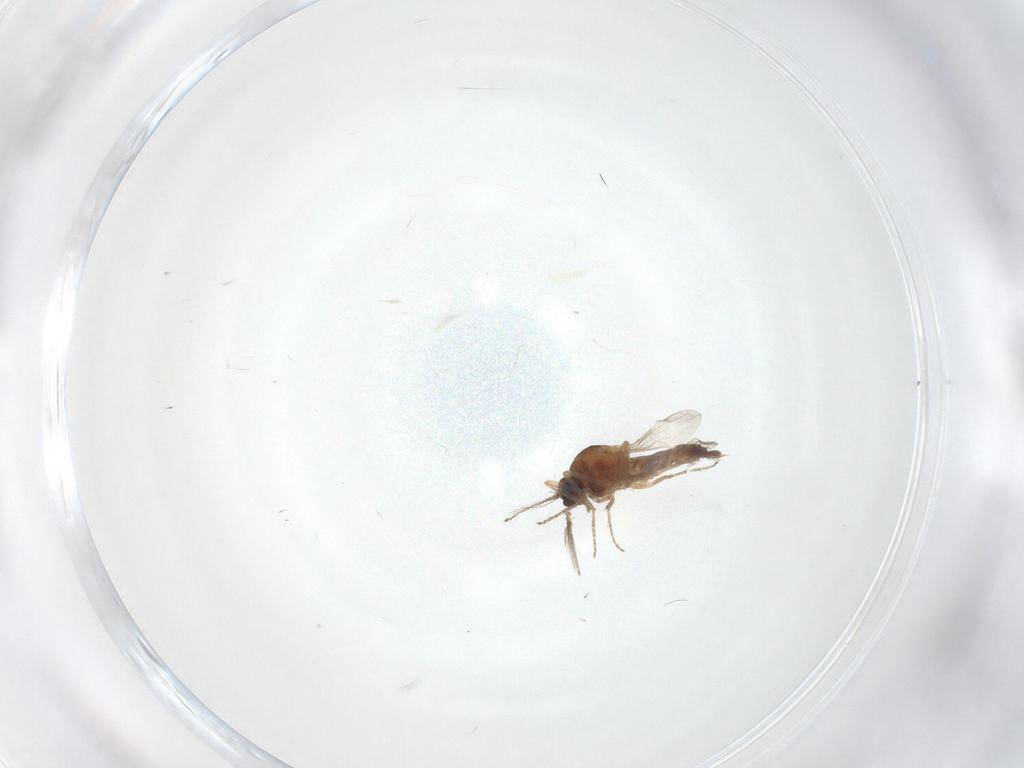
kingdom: Animalia
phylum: Arthropoda
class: Insecta
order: Diptera
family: Ceratopogonidae
